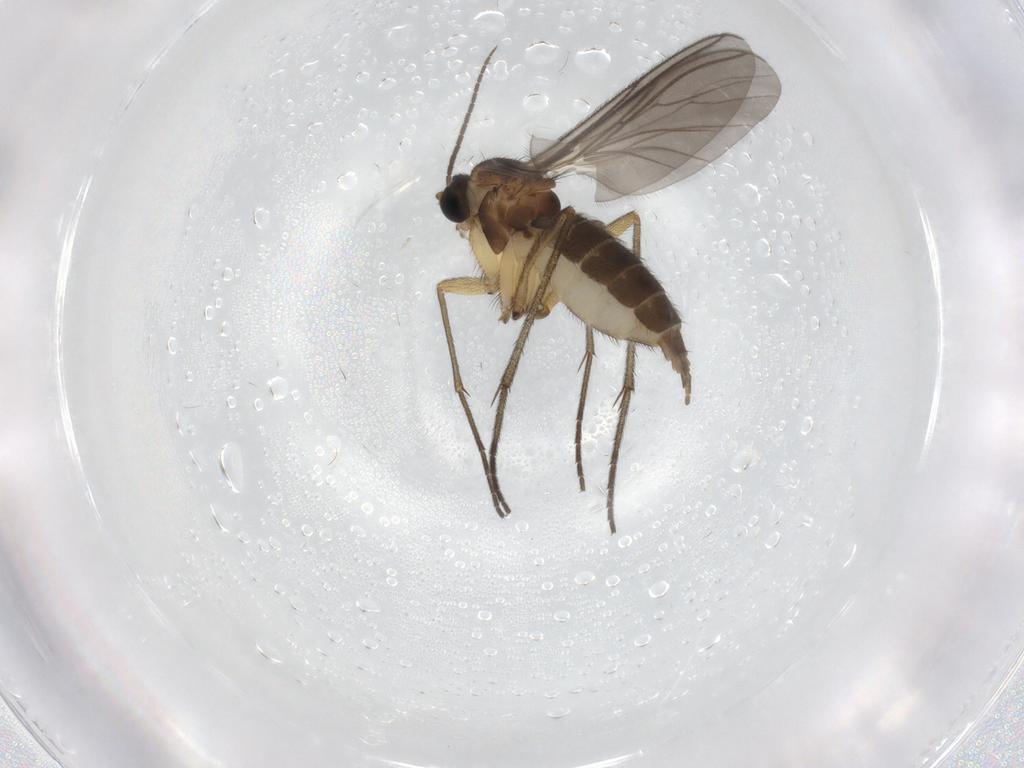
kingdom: Animalia
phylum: Arthropoda
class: Insecta
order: Diptera
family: Sciaridae
